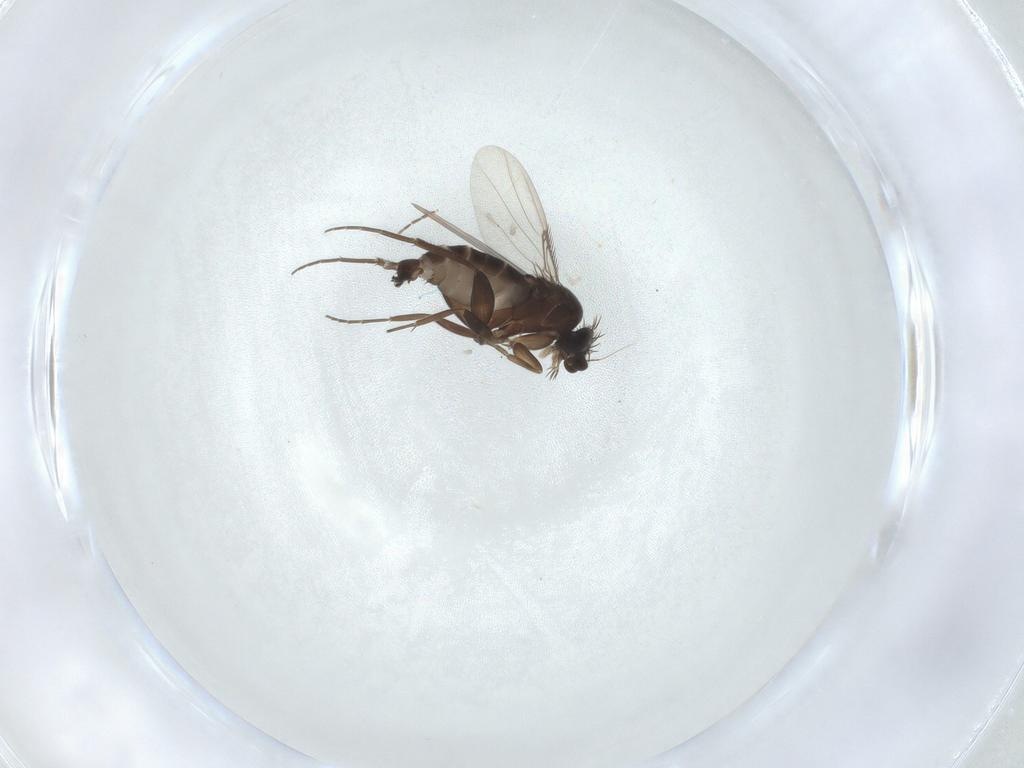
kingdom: Animalia
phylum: Arthropoda
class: Insecta
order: Diptera
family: Phoridae
